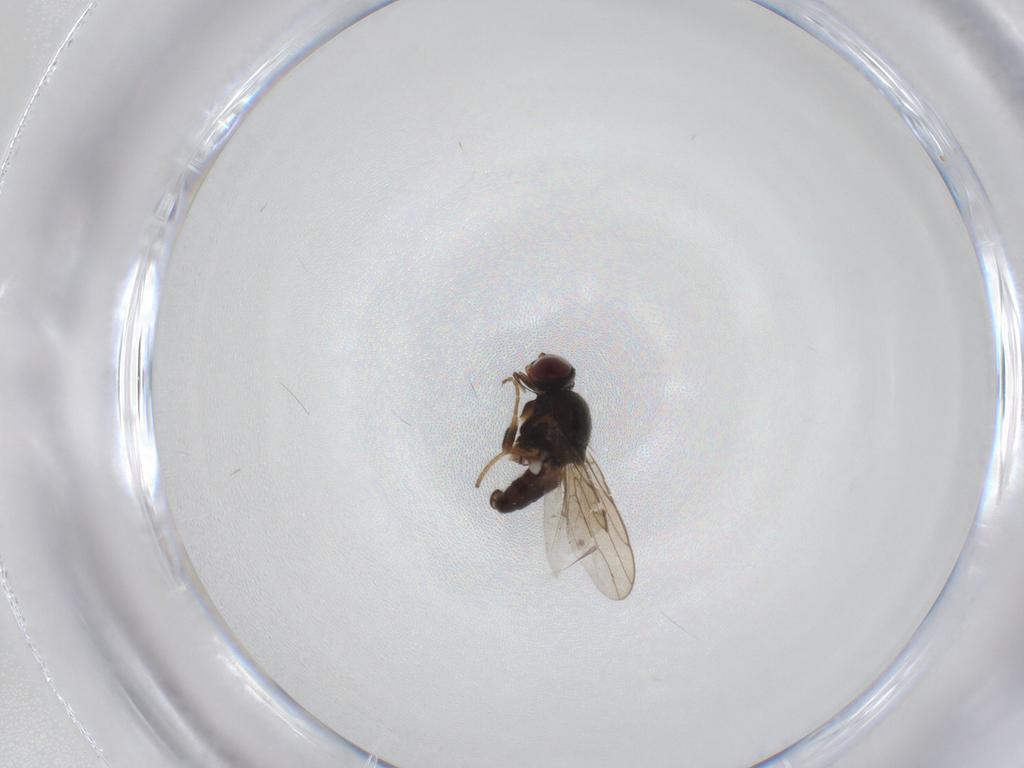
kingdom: Animalia
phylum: Arthropoda
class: Insecta
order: Diptera
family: Chloropidae
